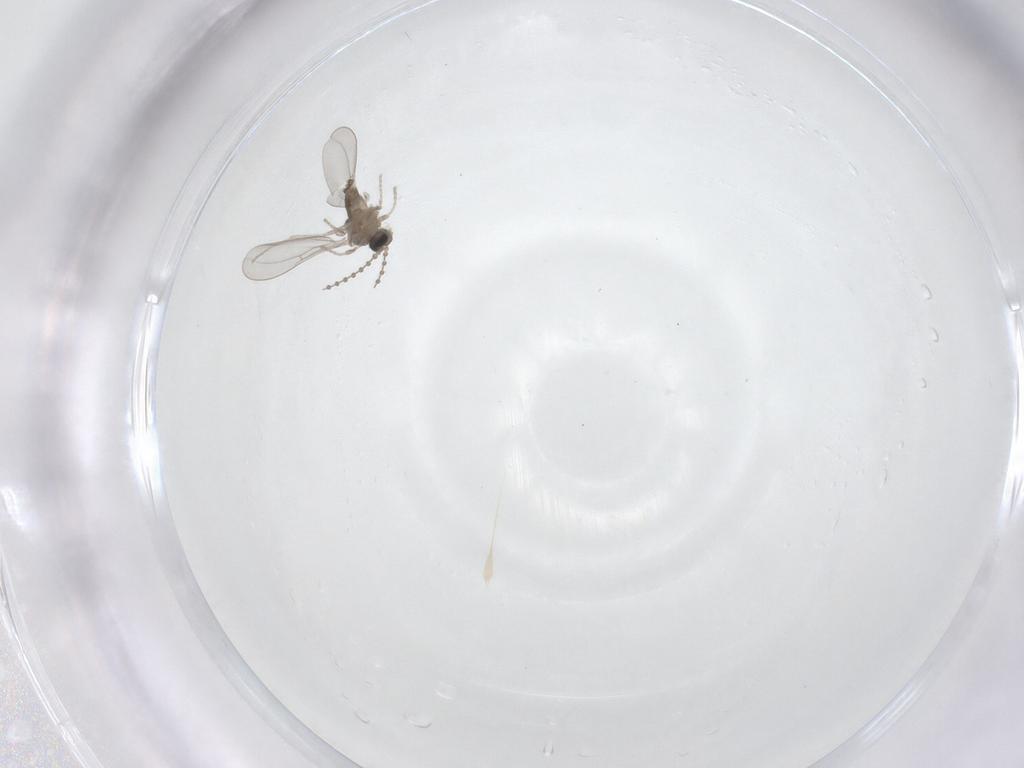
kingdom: Animalia
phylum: Arthropoda
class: Insecta
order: Diptera
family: Cecidomyiidae
